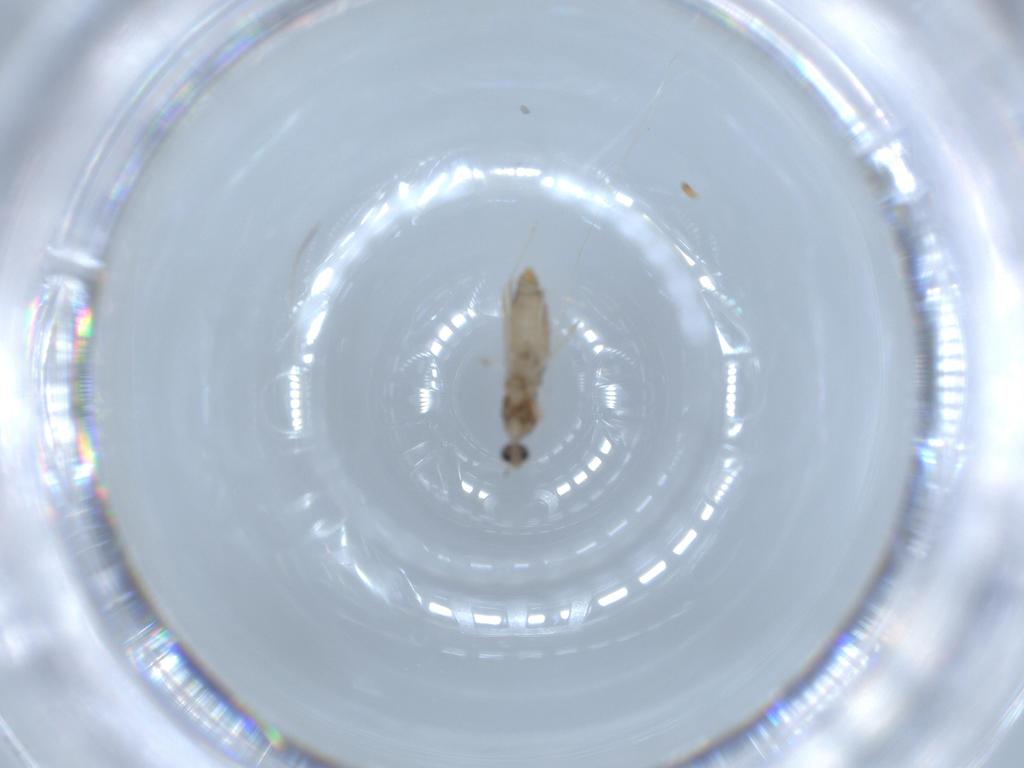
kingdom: Animalia
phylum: Arthropoda
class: Insecta
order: Diptera
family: Cecidomyiidae
